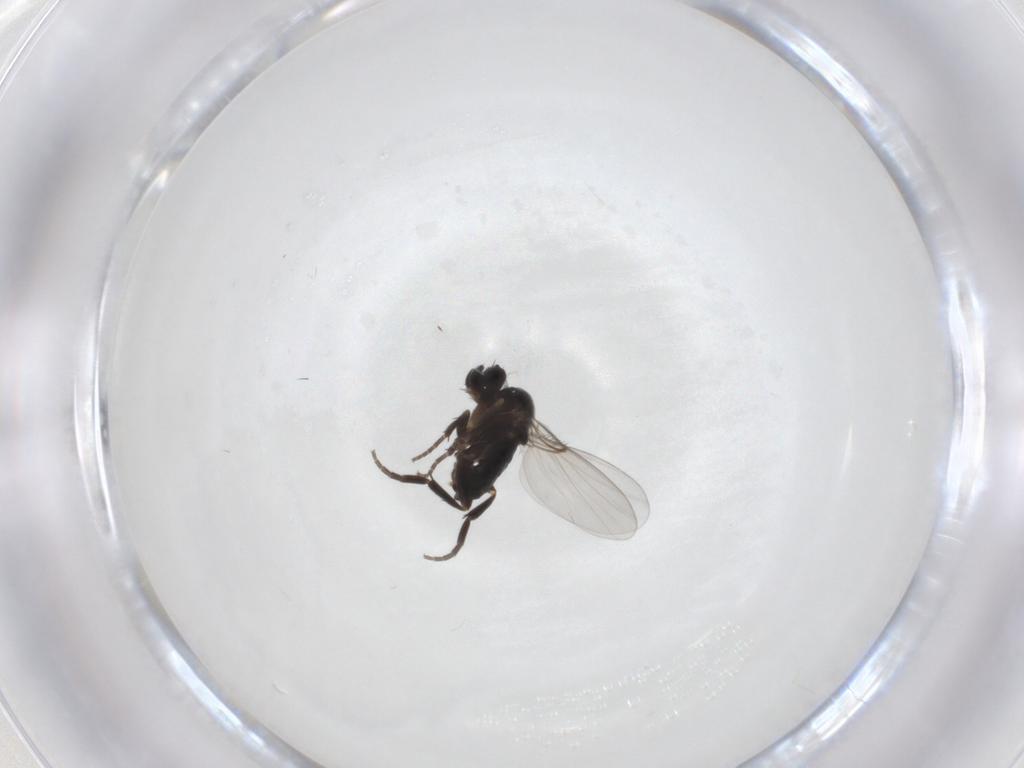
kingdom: Animalia
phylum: Arthropoda
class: Insecta
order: Diptera
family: Phoridae
